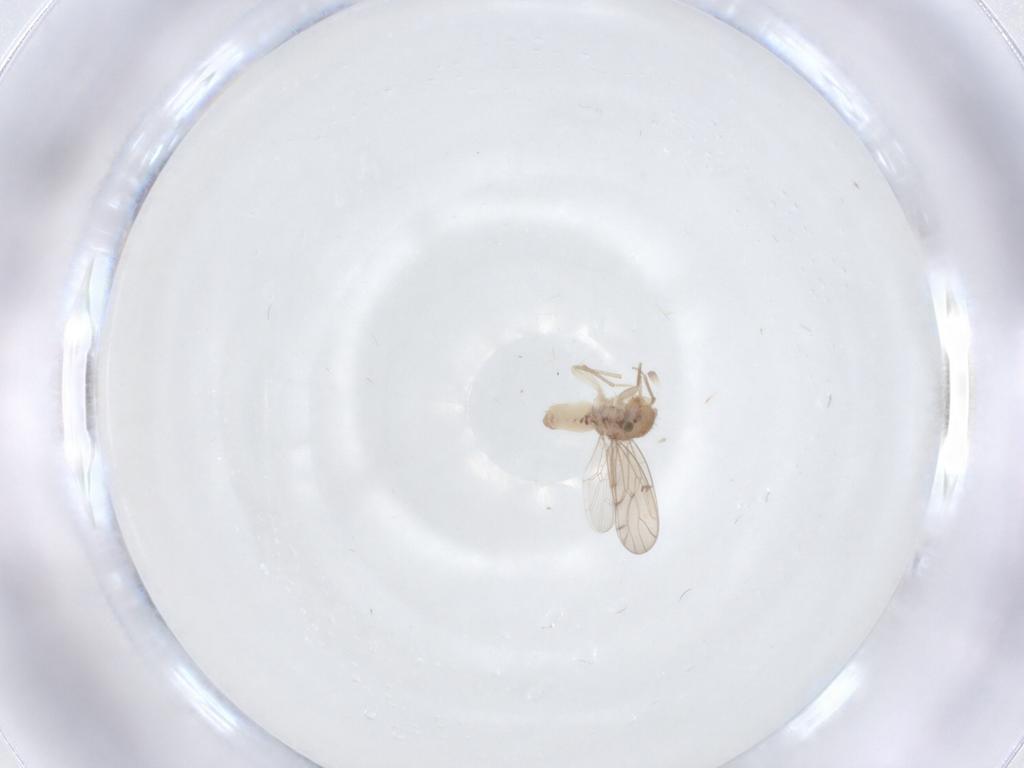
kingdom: Animalia
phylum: Arthropoda
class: Insecta
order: Psocodea
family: Ectopsocidae
